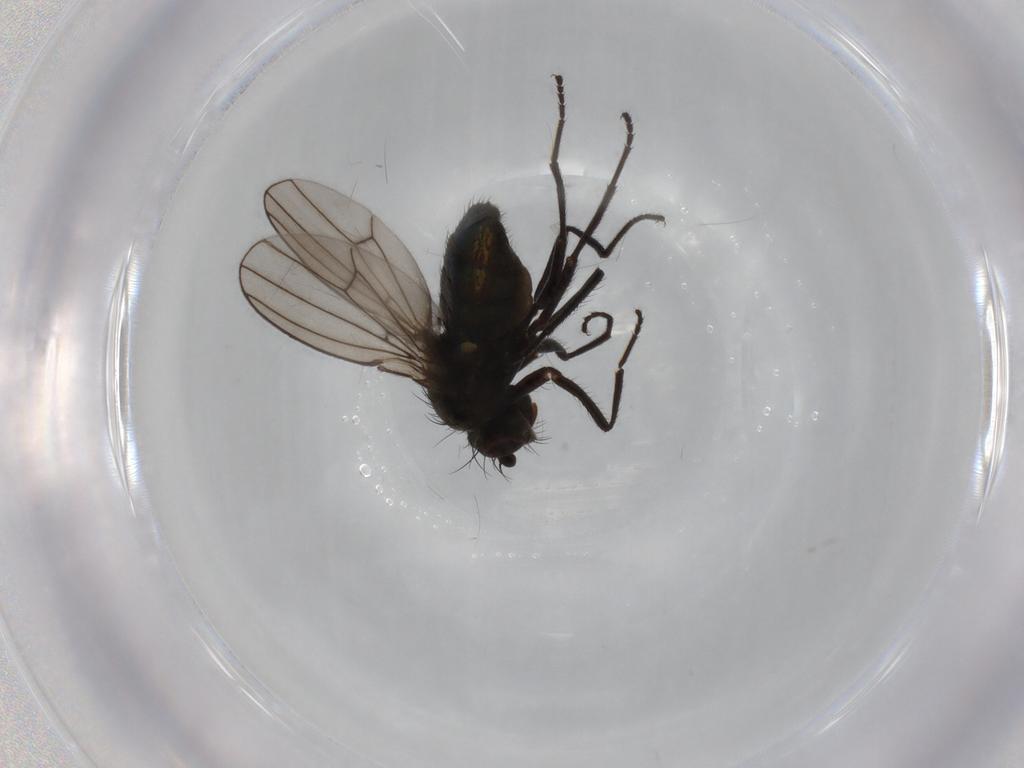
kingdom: Animalia
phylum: Arthropoda
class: Insecta
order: Diptera
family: Ephydridae
